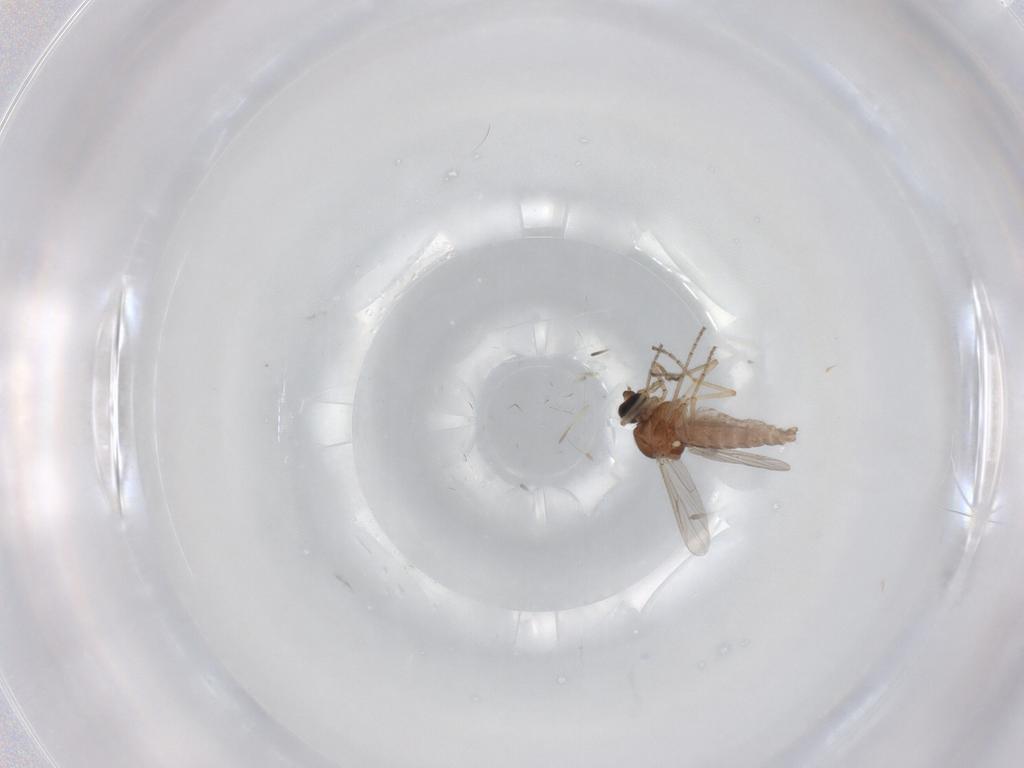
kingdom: Animalia
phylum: Arthropoda
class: Insecta
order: Diptera
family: Ceratopogonidae
